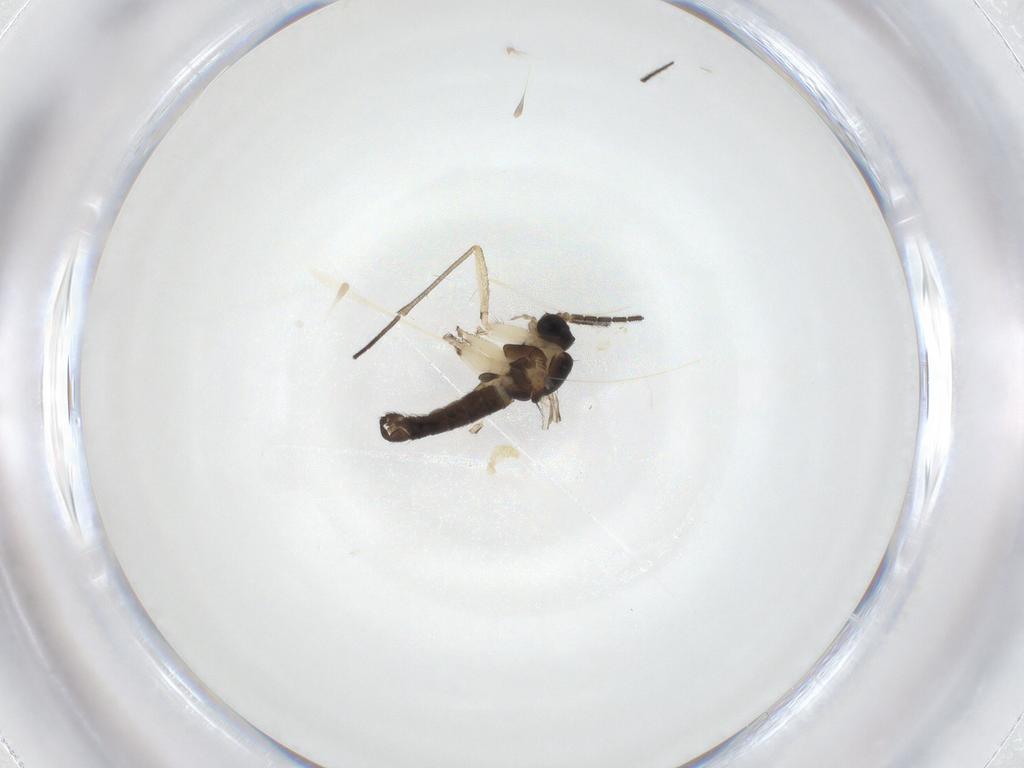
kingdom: Animalia
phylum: Arthropoda
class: Insecta
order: Diptera
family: Sciaridae
